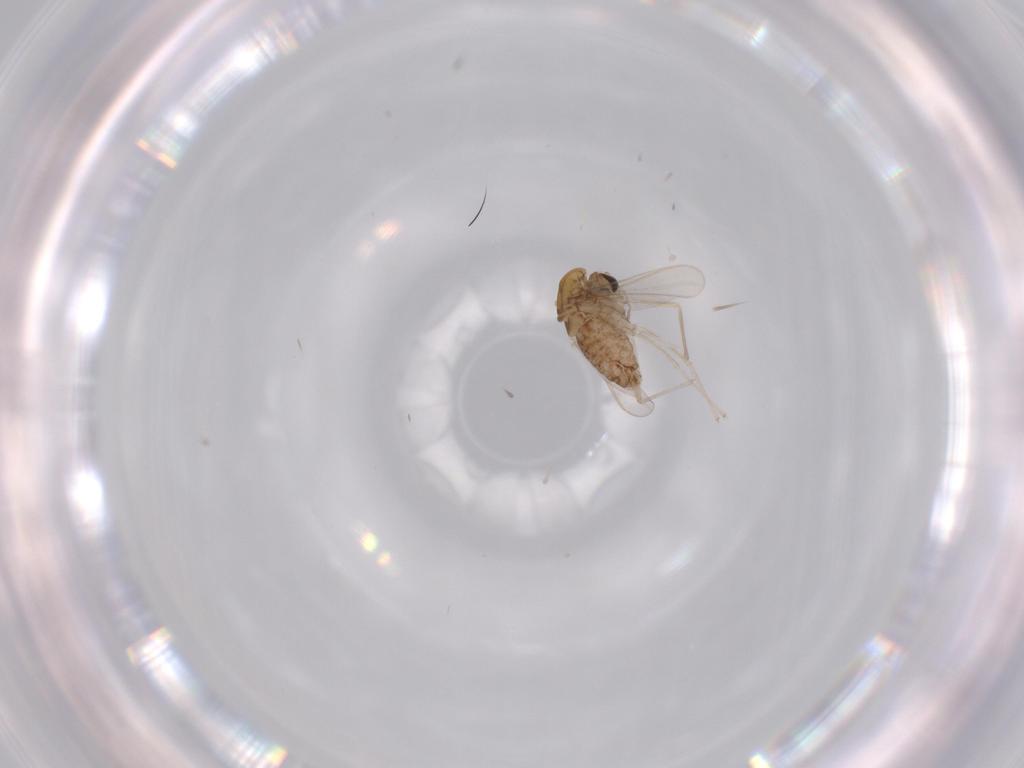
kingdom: Animalia
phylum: Arthropoda
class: Insecta
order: Diptera
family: Chironomidae
